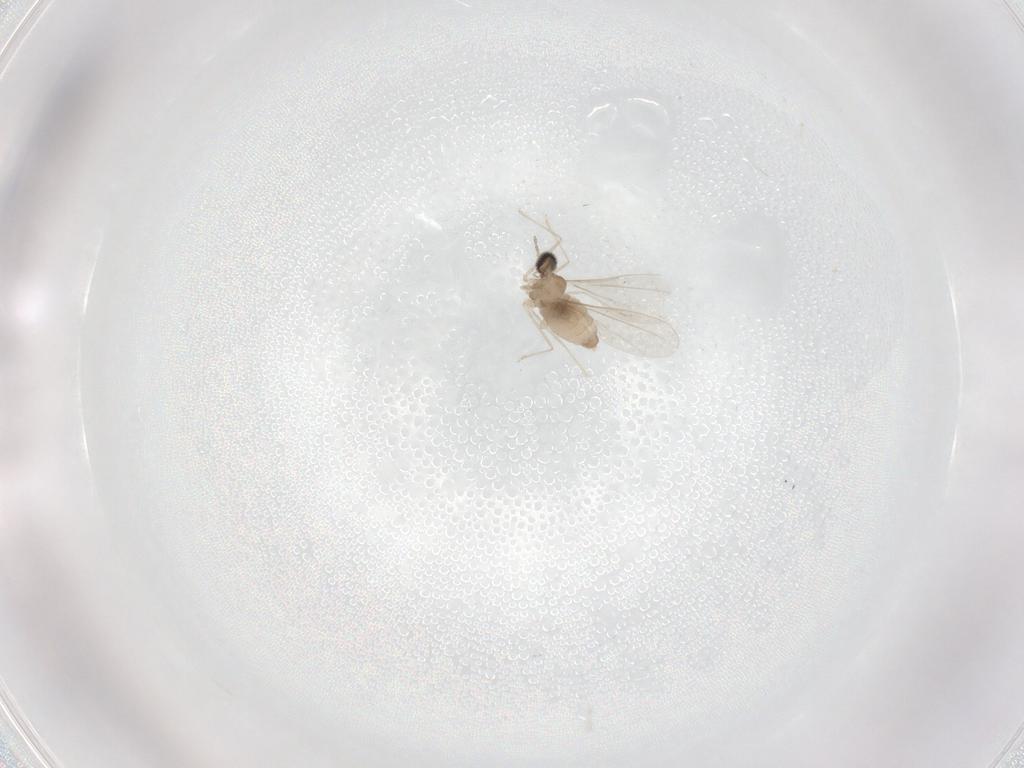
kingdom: Animalia
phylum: Arthropoda
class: Insecta
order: Diptera
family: Cecidomyiidae
